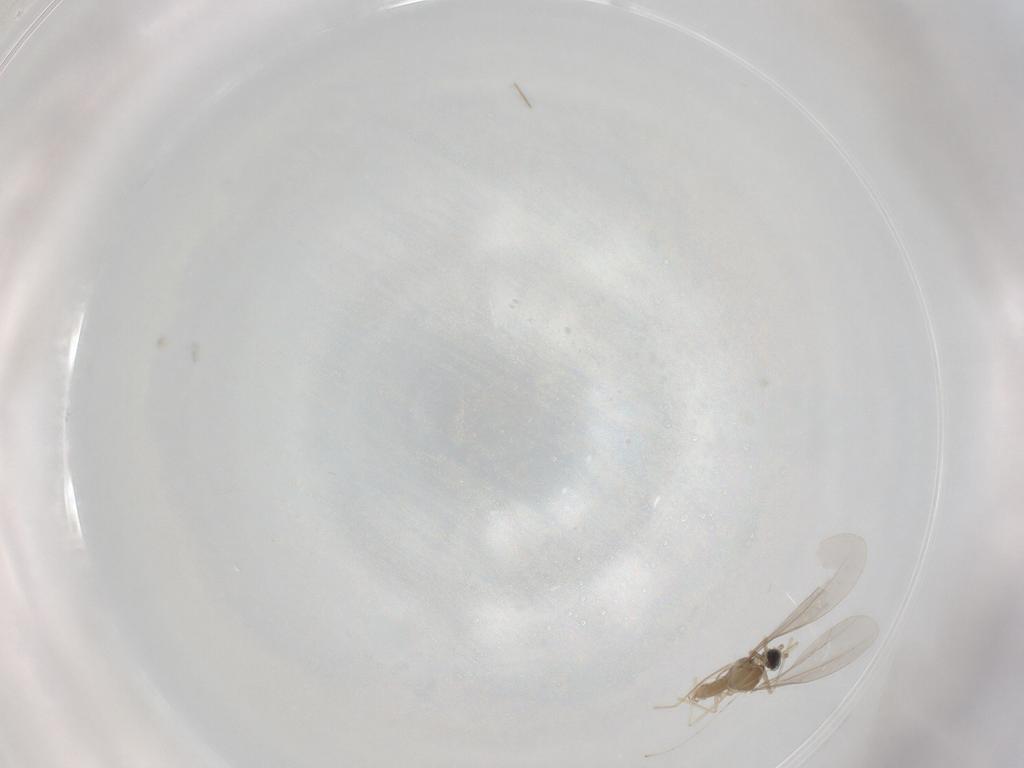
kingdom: Animalia
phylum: Arthropoda
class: Insecta
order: Diptera
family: Cecidomyiidae
